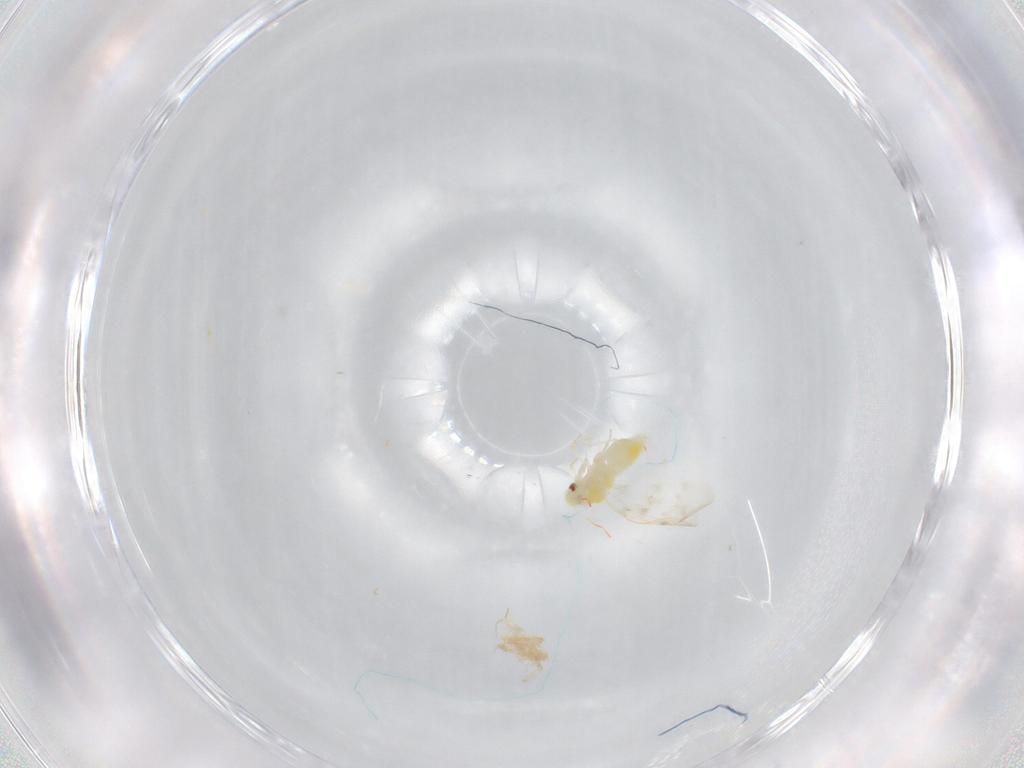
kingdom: Animalia
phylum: Arthropoda
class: Insecta
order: Hemiptera
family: Aleyrodidae
